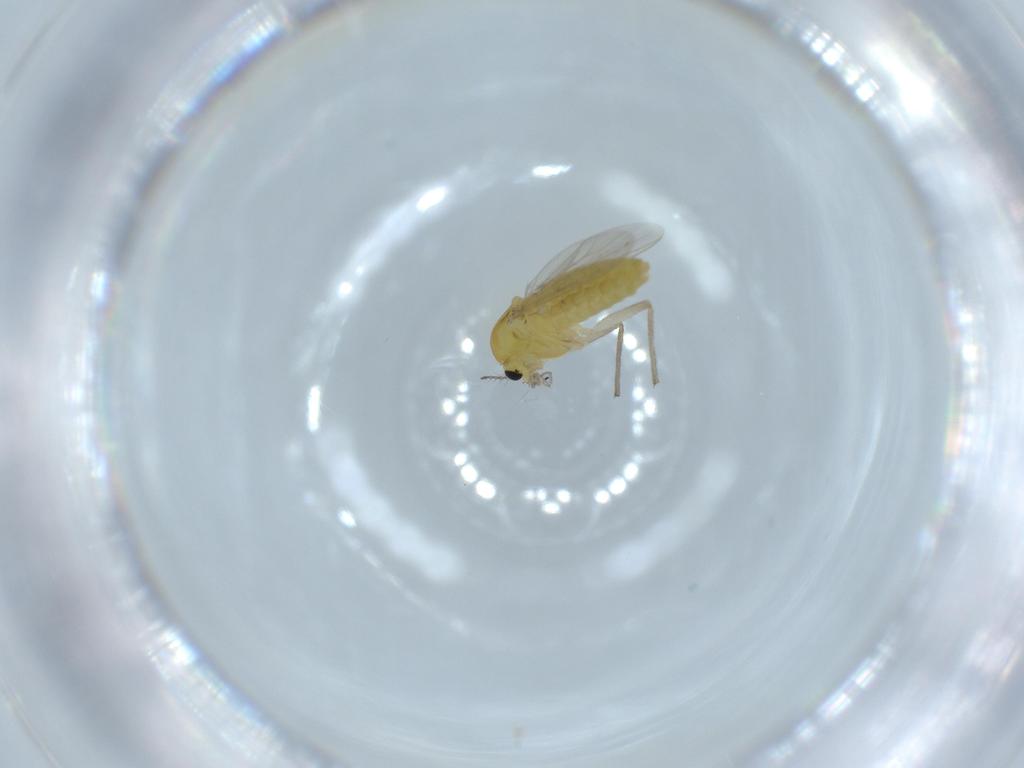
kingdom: Animalia
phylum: Arthropoda
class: Insecta
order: Diptera
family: Chironomidae
